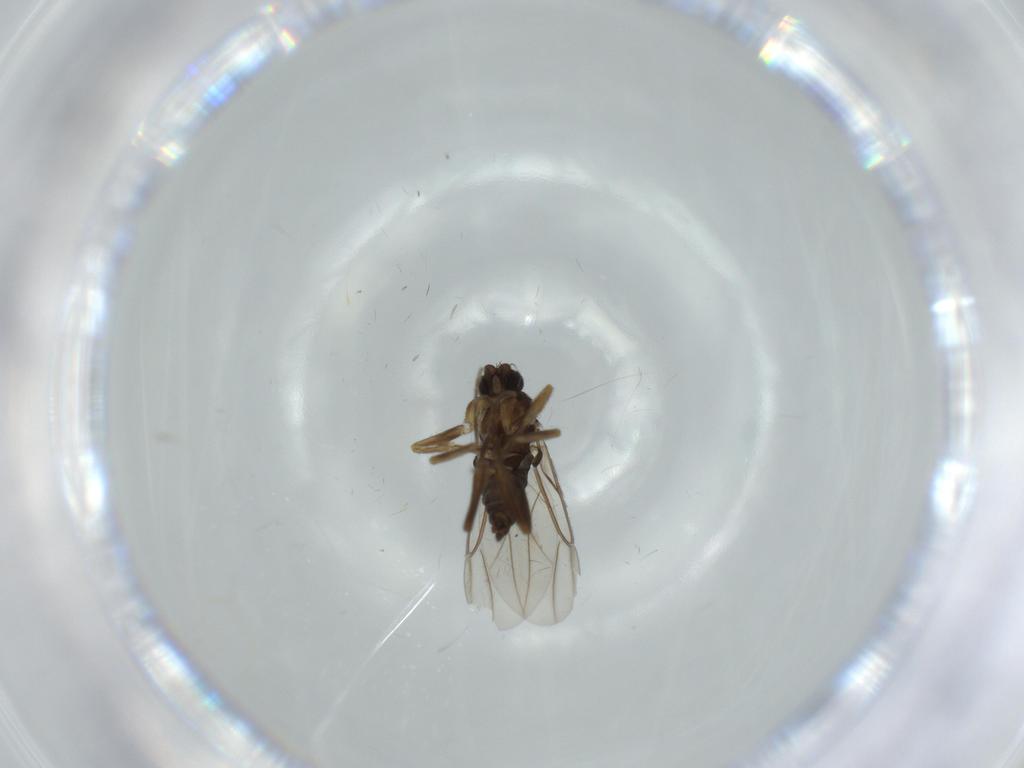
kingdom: Animalia
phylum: Arthropoda
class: Insecta
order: Diptera
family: Phoridae
